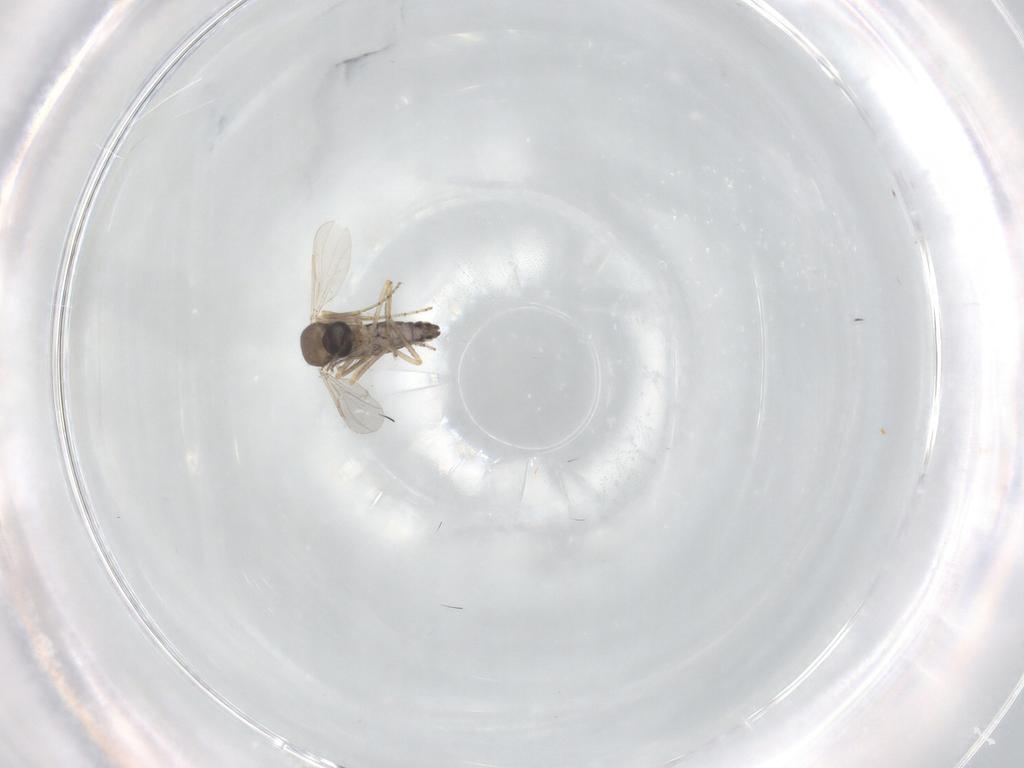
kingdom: Animalia
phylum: Arthropoda
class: Insecta
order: Diptera
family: Ceratopogonidae
